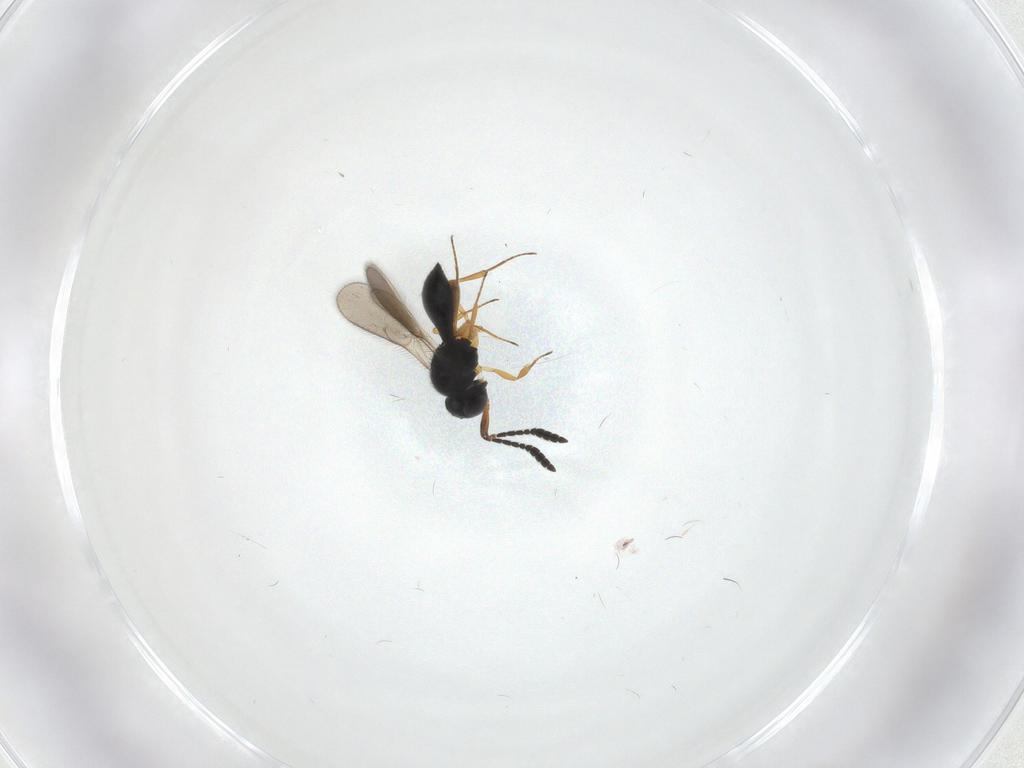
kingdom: Animalia
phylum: Arthropoda
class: Insecta
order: Hymenoptera
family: Scelionidae
